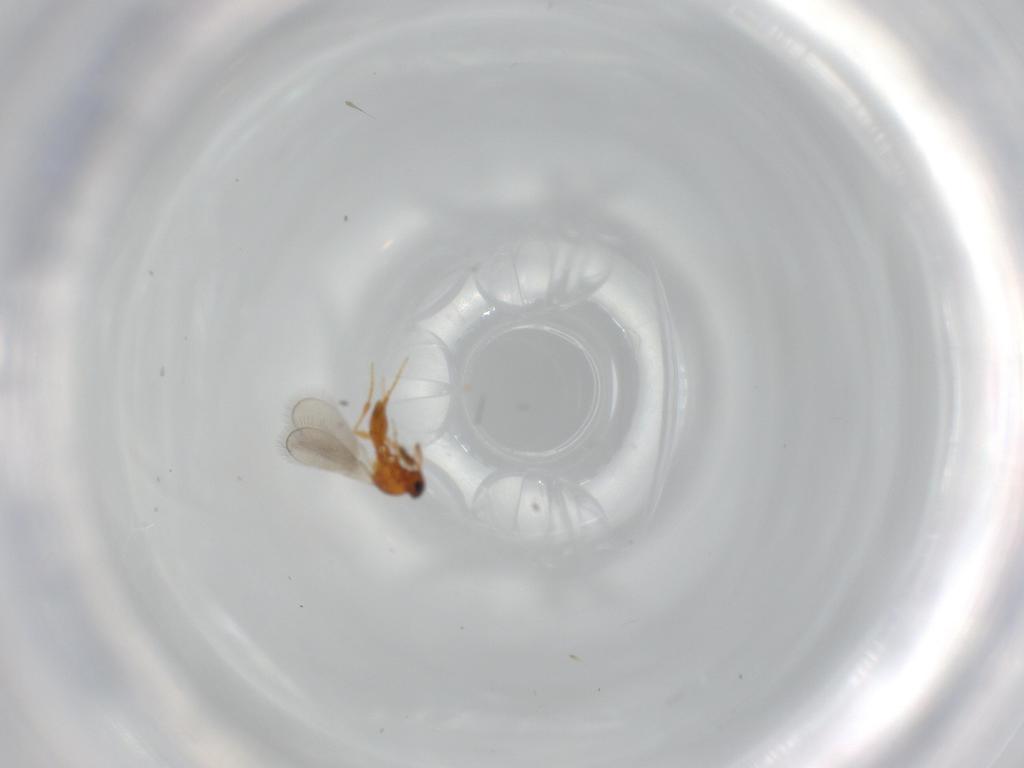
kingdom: Animalia
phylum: Arthropoda
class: Insecta
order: Hymenoptera
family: Platygastridae
